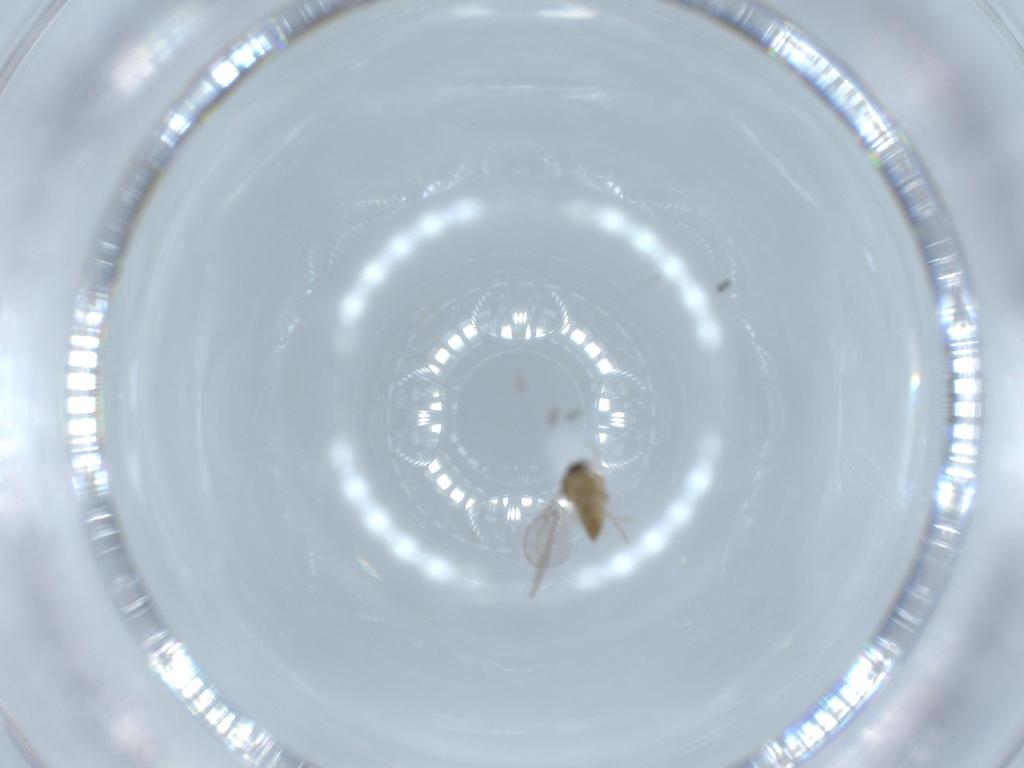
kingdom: Animalia
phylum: Arthropoda
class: Insecta
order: Diptera
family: Cecidomyiidae
